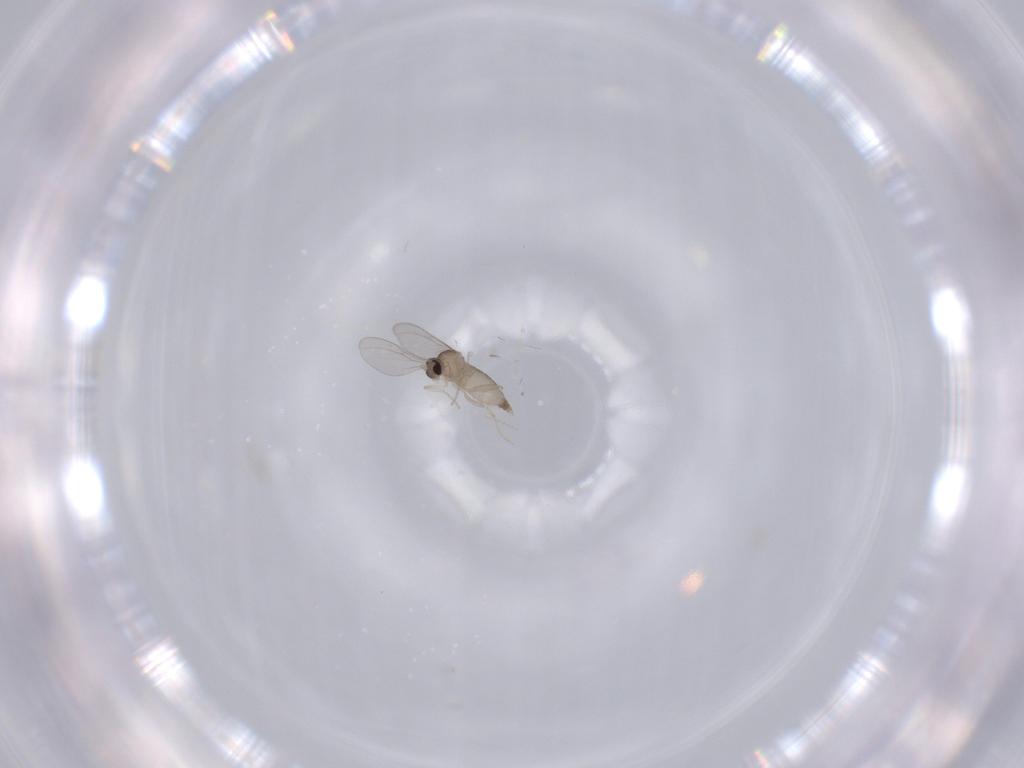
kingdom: Animalia
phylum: Arthropoda
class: Insecta
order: Diptera
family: Cecidomyiidae
